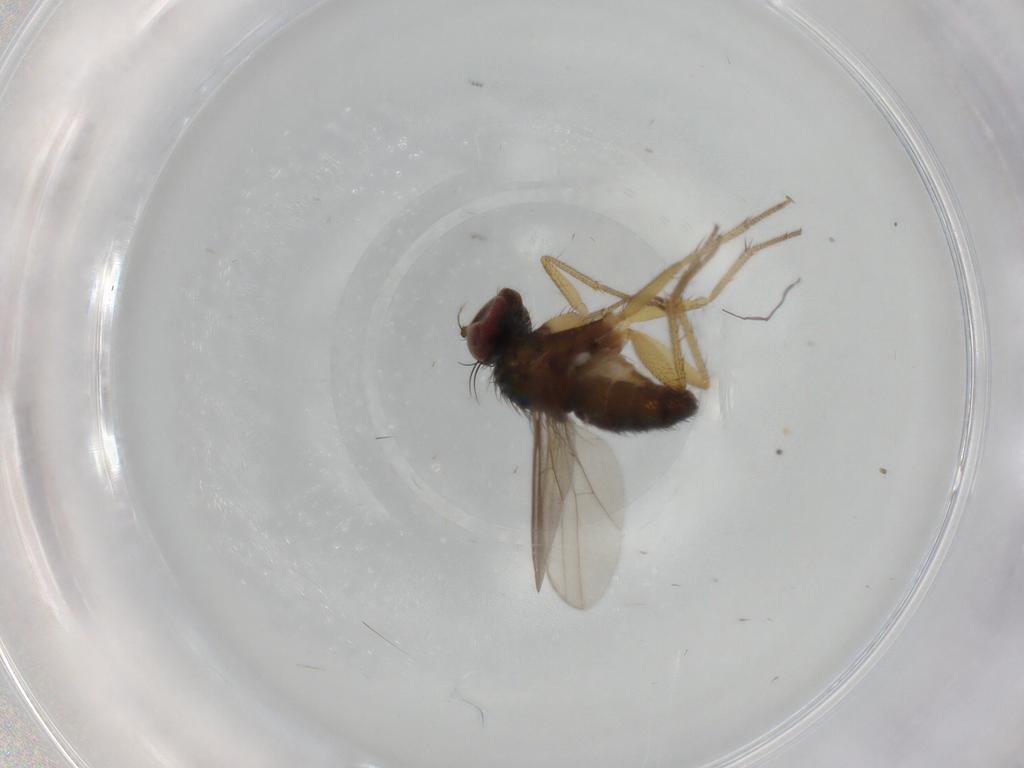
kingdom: Animalia
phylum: Arthropoda
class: Insecta
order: Diptera
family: Dolichopodidae
